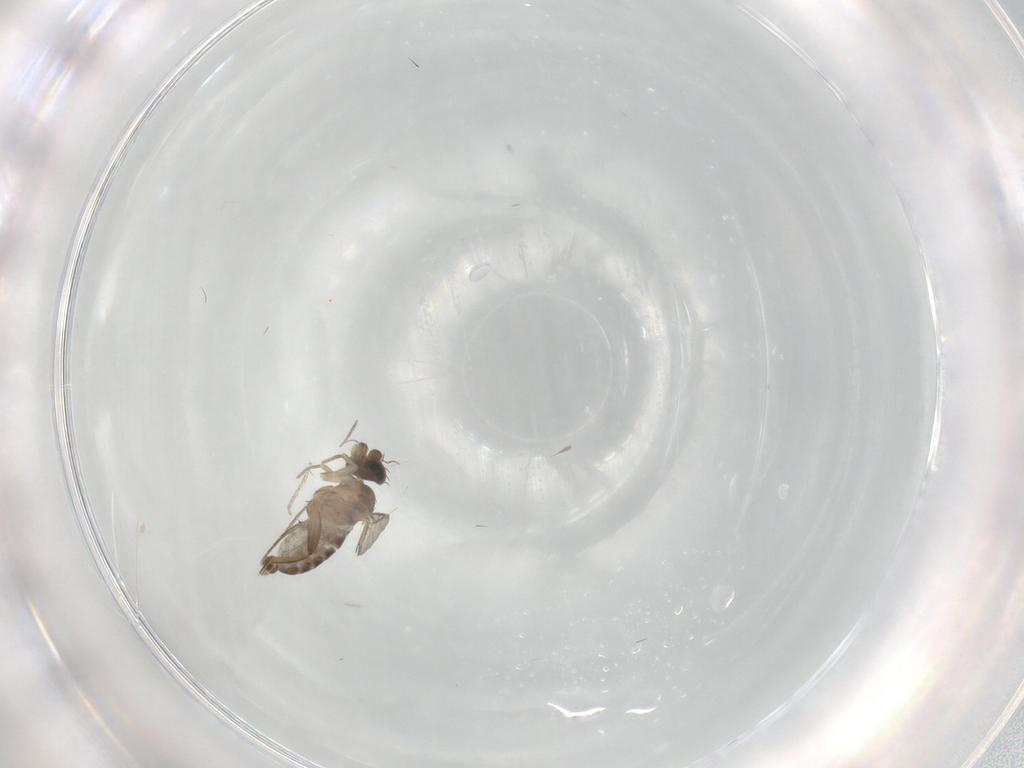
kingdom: Animalia
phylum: Arthropoda
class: Insecta
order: Diptera
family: Phoridae
